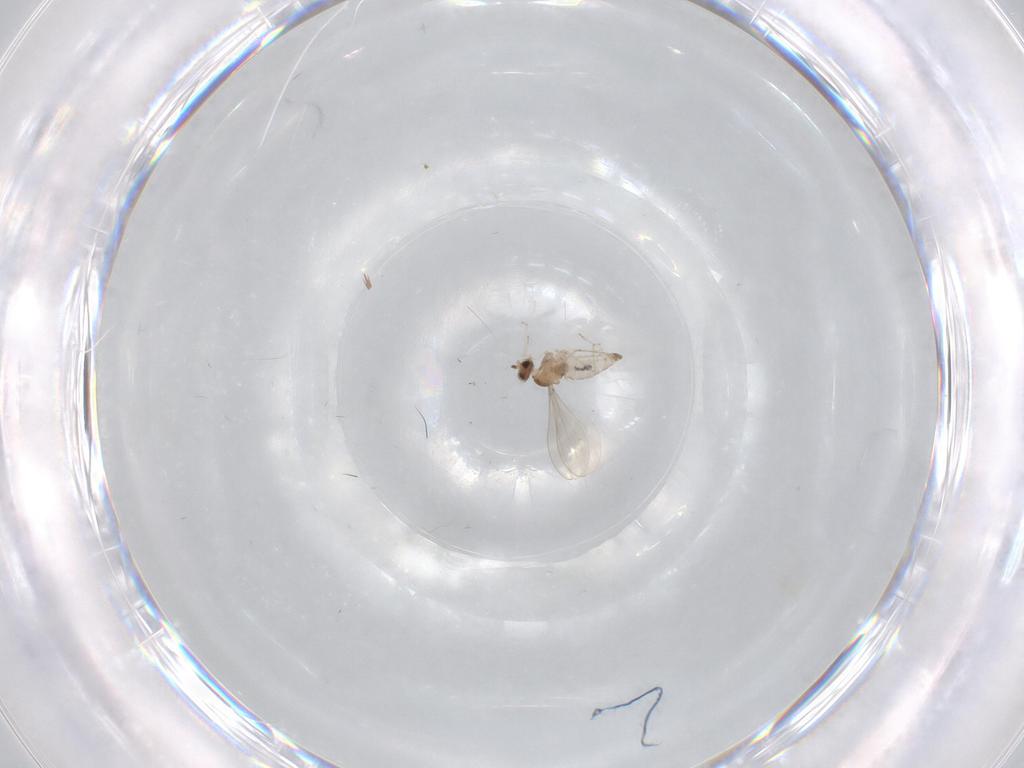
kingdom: Animalia
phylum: Arthropoda
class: Insecta
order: Diptera
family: Cecidomyiidae
